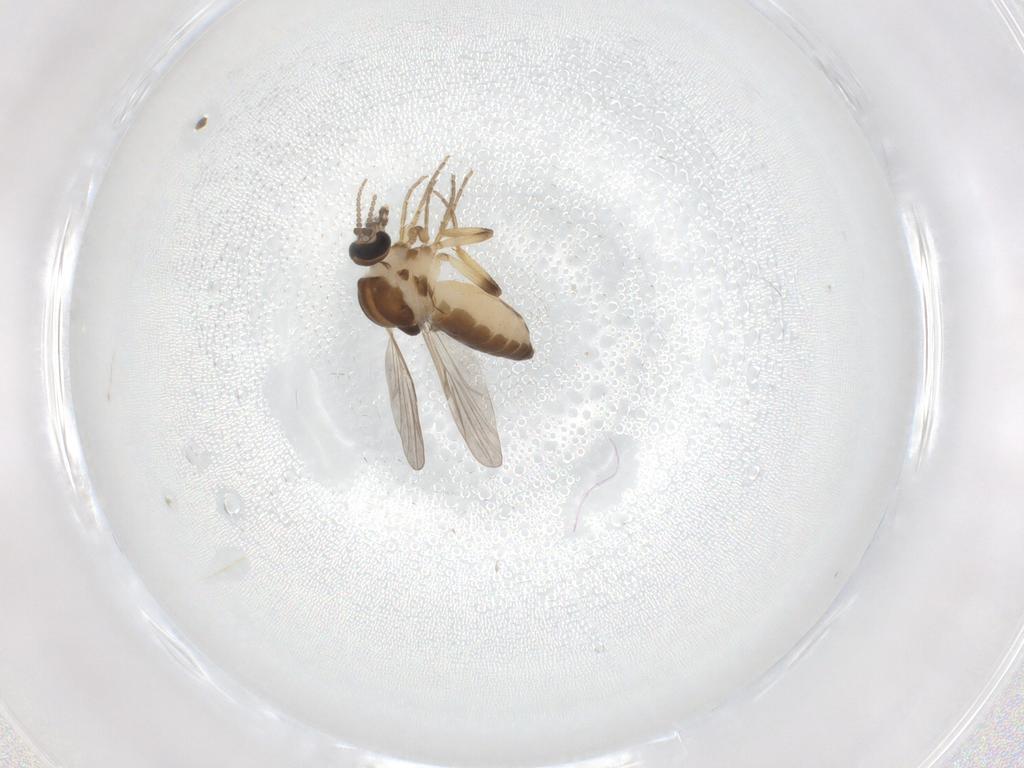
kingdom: Animalia
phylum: Arthropoda
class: Insecta
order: Diptera
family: Ceratopogonidae
